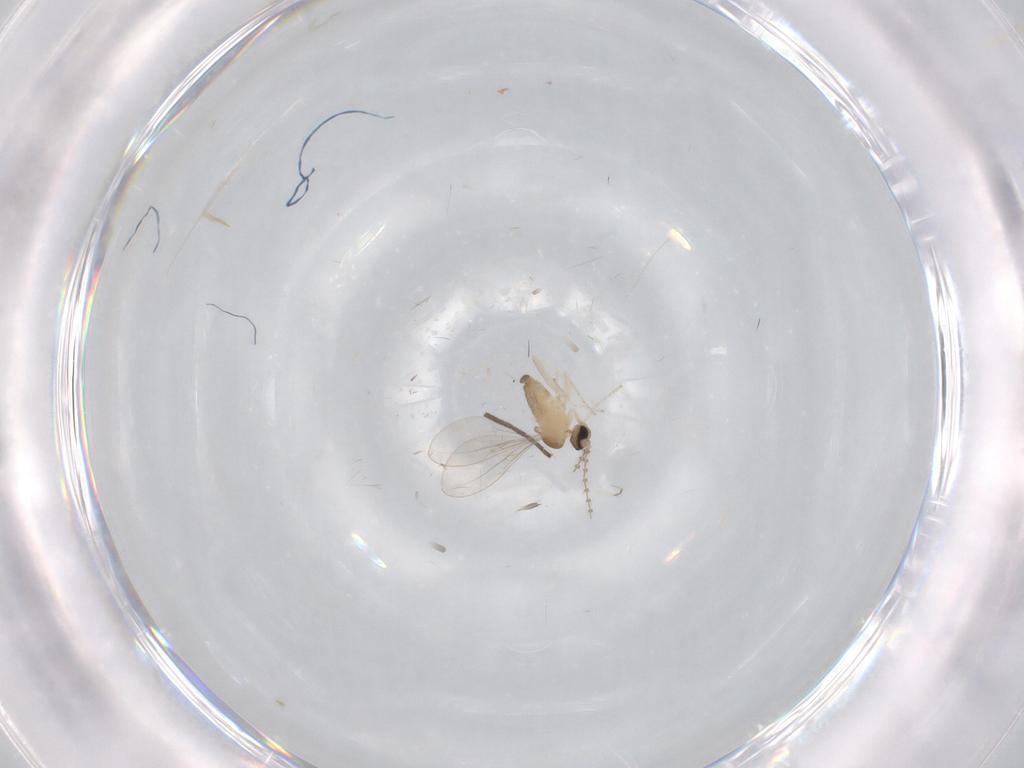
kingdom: Animalia
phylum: Arthropoda
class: Insecta
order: Diptera
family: Cecidomyiidae
